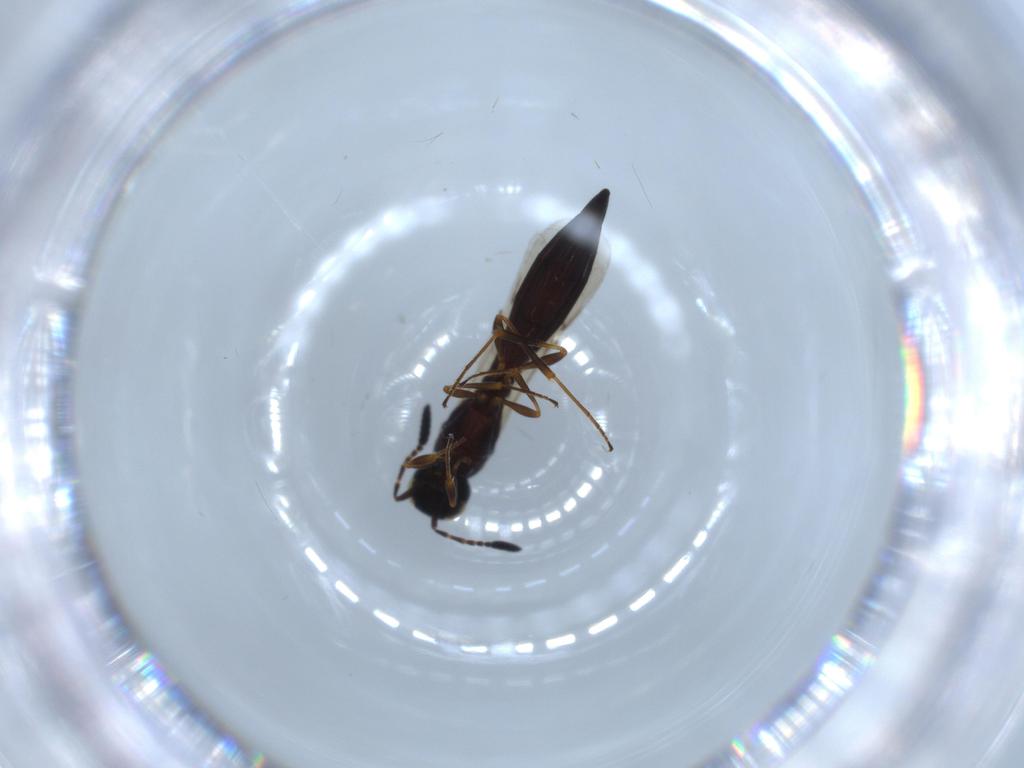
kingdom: Animalia
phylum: Arthropoda
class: Insecta
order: Hymenoptera
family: Scelionidae
